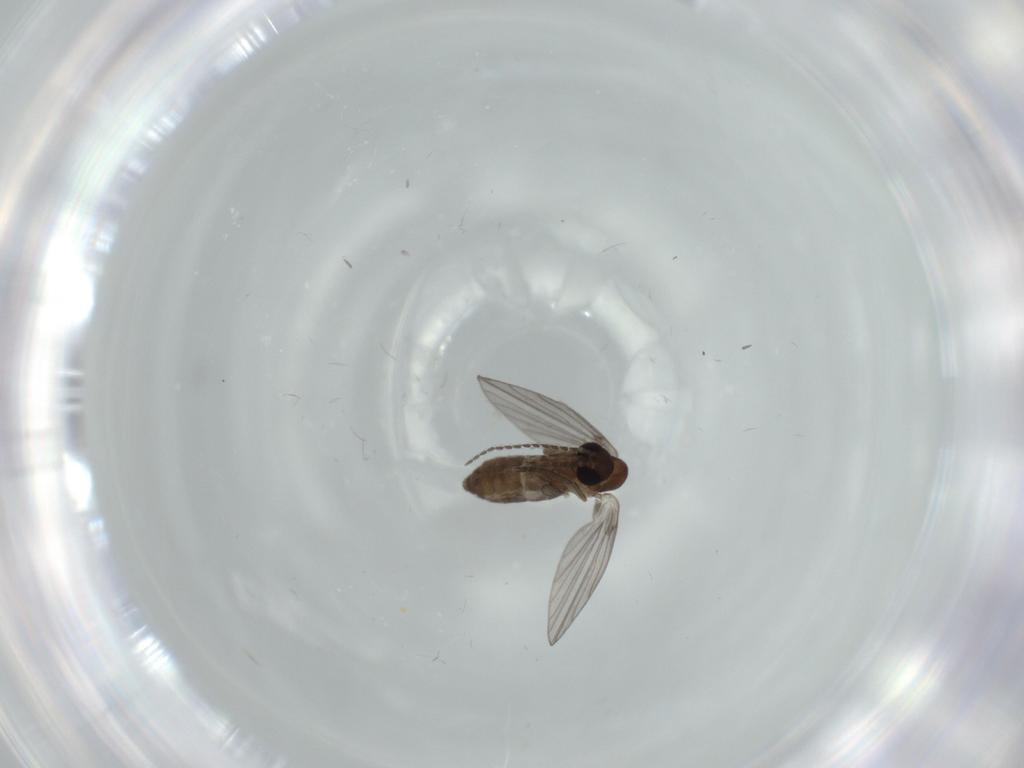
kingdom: Animalia
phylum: Arthropoda
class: Insecta
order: Diptera
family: Psychodidae
